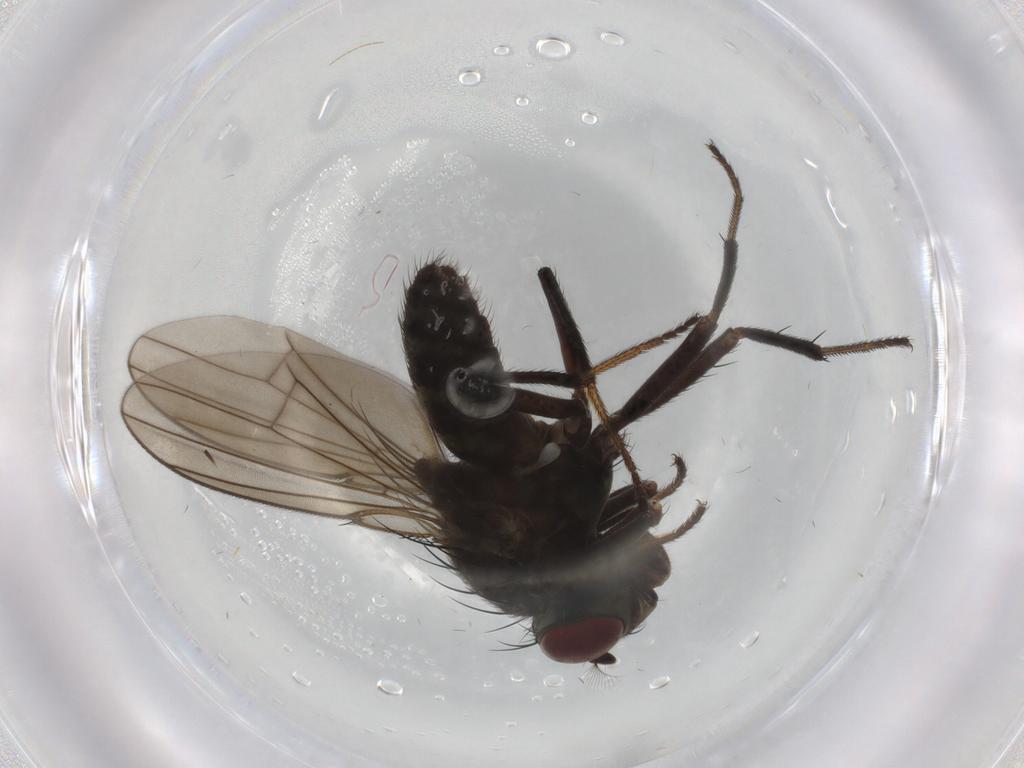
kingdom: Animalia
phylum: Arthropoda
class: Insecta
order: Diptera
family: Ephydridae
